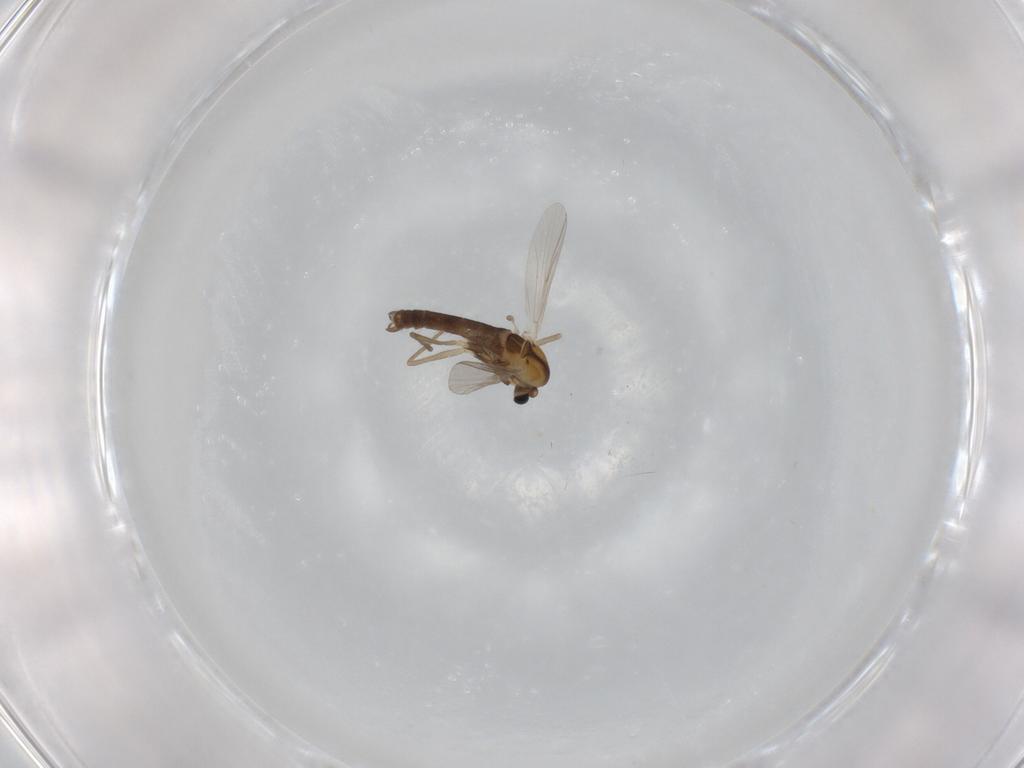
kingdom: Animalia
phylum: Arthropoda
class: Insecta
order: Diptera
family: Chironomidae
